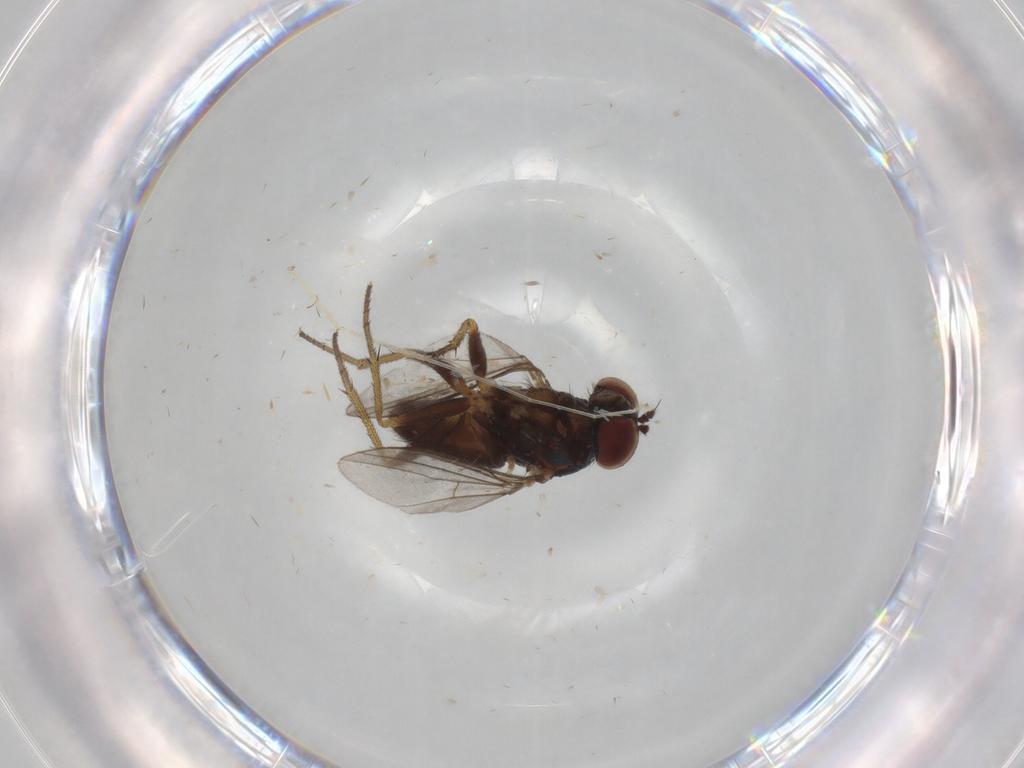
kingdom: Animalia
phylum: Arthropoda
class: Insecta
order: Diptera
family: Cecidomyiidae
